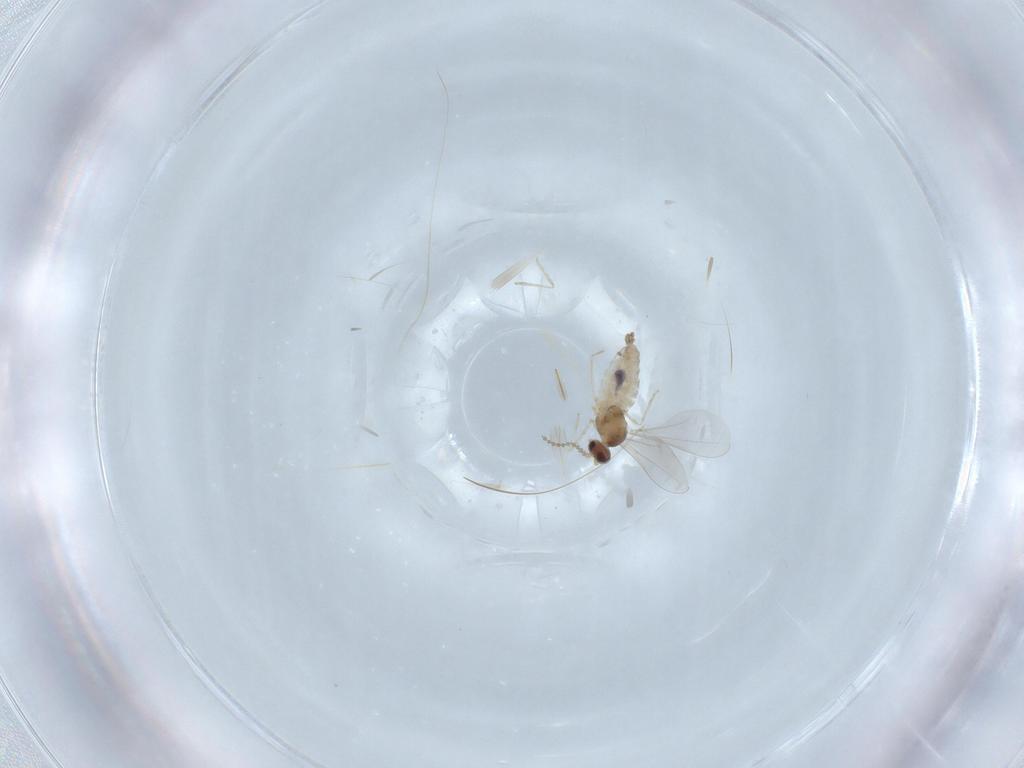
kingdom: Animalia
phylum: Arthropoda
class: Insecta
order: Diptera
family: Cecidomyiidae
